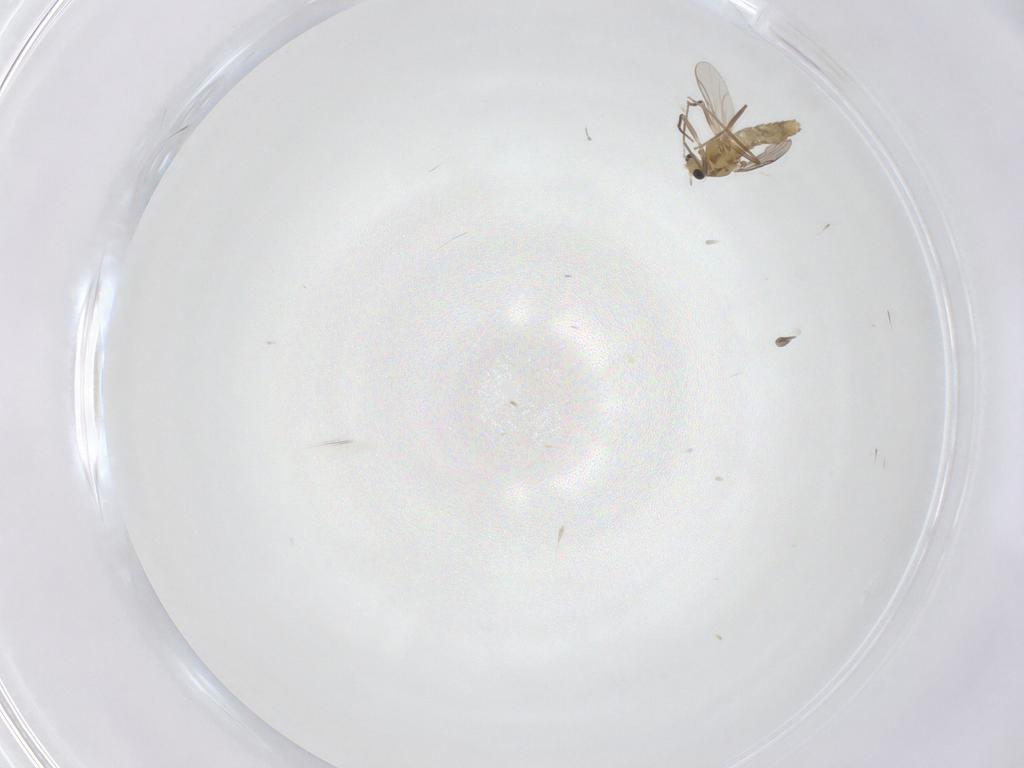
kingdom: Animalia
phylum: Arthropoda
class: Insecta
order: Diptera
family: Chironomidae
